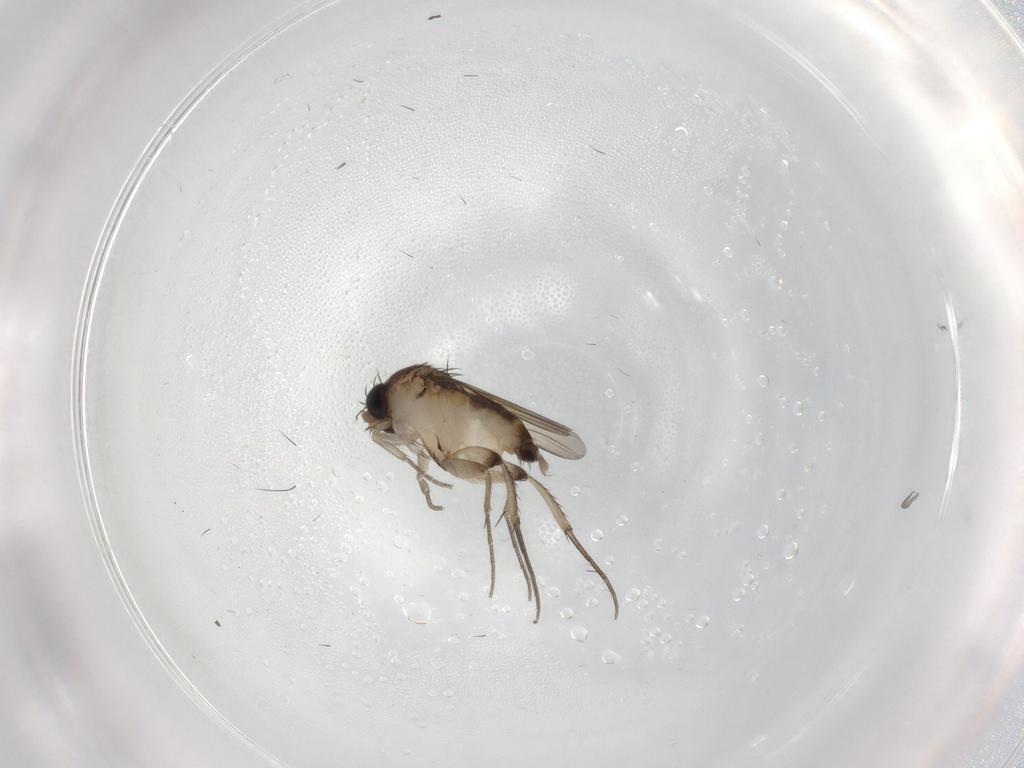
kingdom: Animalia
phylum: Arthropoda
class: Insecta
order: Diptera
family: Phoridae
